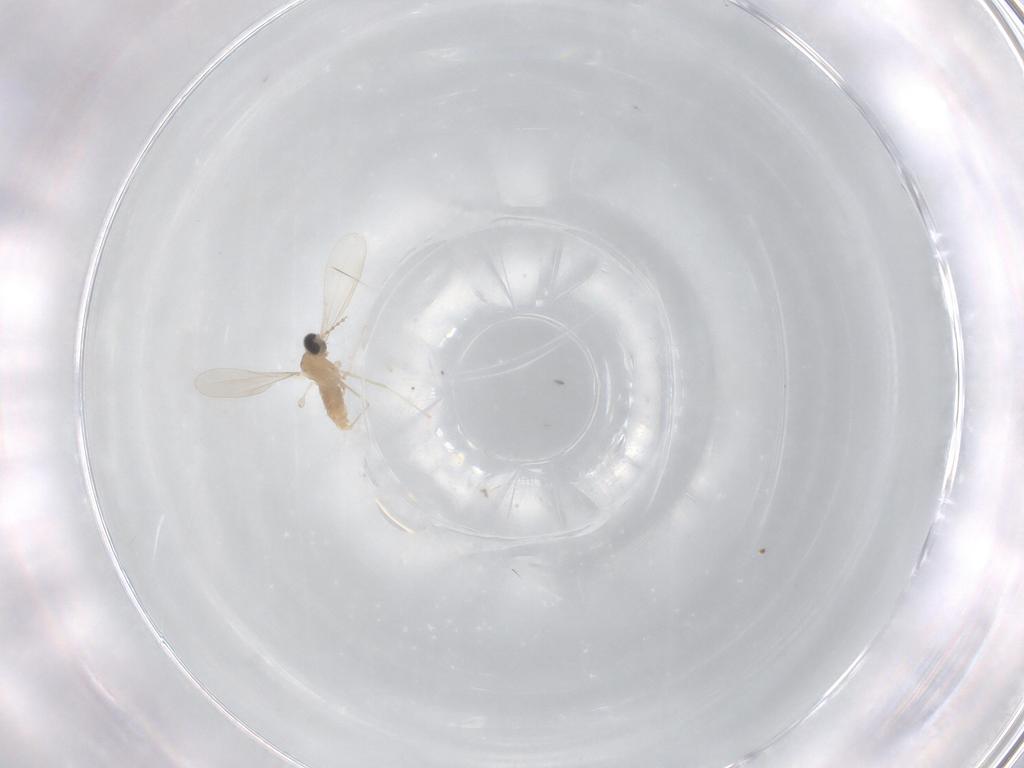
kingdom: Animalia
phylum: Arthropoda
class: Insecta
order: Diptera
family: Cecidomyiidae
